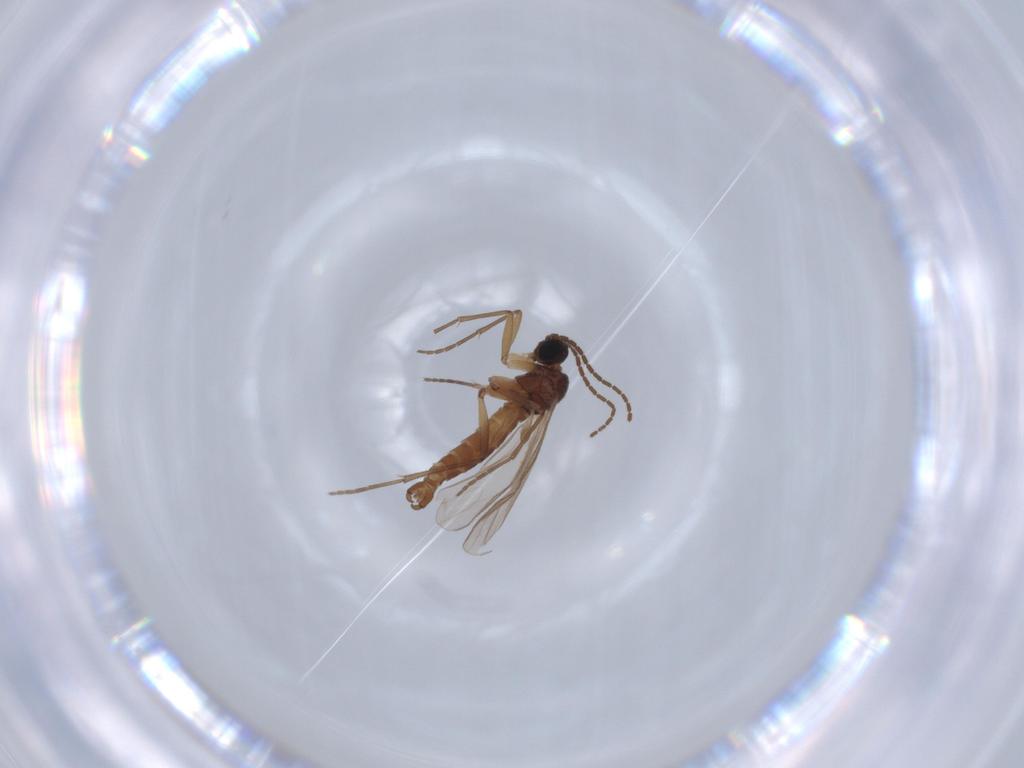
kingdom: Animalia
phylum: Arthropoda
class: Insecta
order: Diptera
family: Sciaridae
